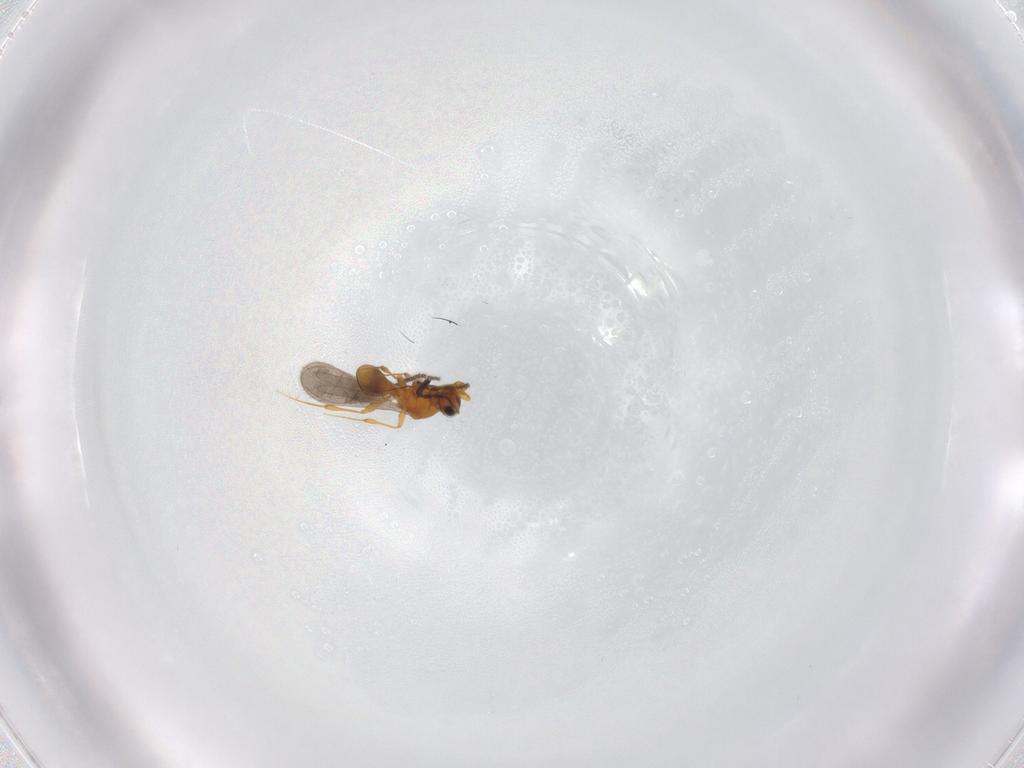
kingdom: Animalia
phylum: Arthropoda
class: Insecta
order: Hymenoptera
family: Platygastridae
